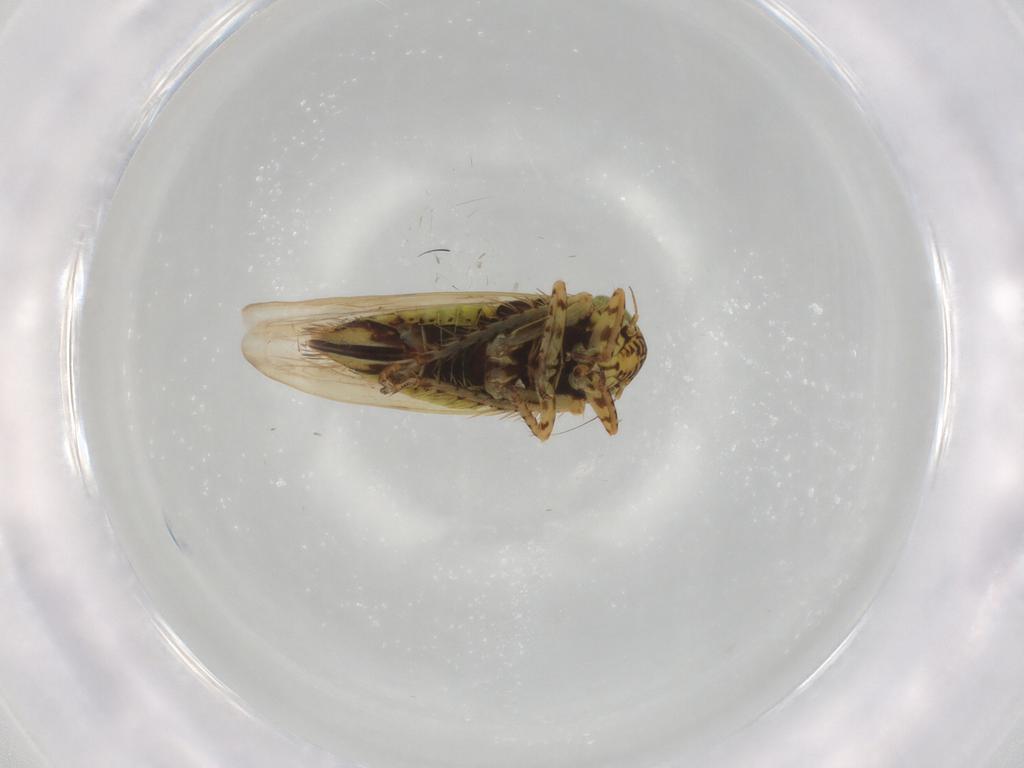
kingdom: Animalia
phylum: Arthropoda
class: Insecta
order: Hemiptera
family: Cicadellidae
